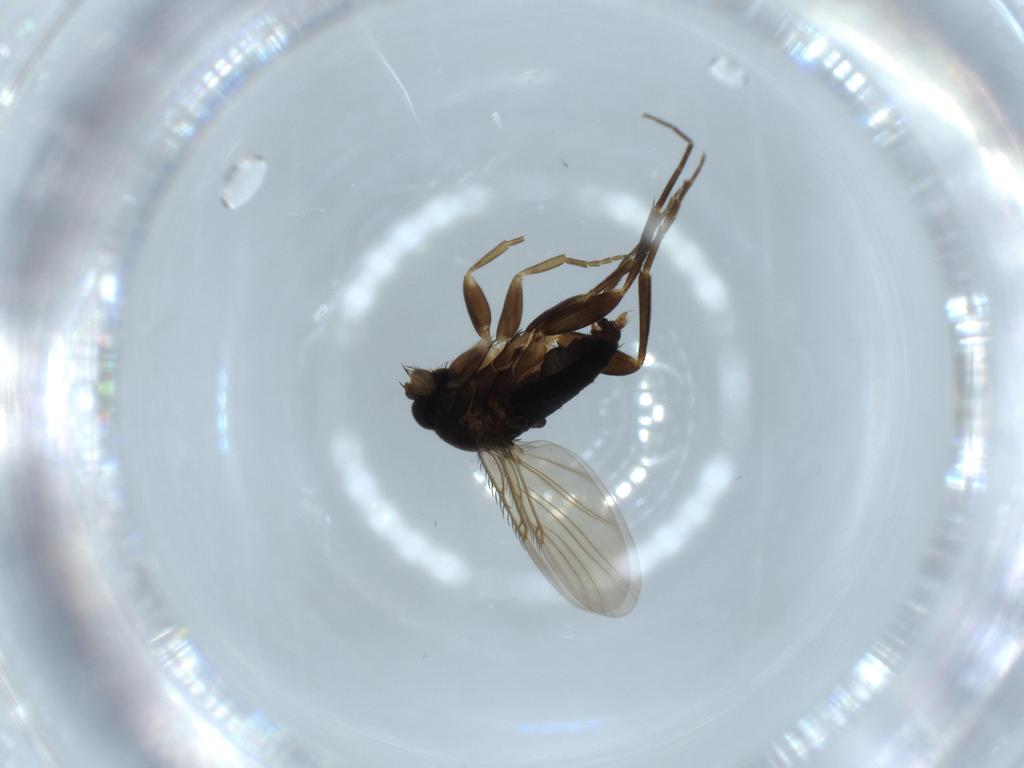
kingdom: Animalia
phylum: Arthropoda
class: Insecta
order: Diptera
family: Phoridae
